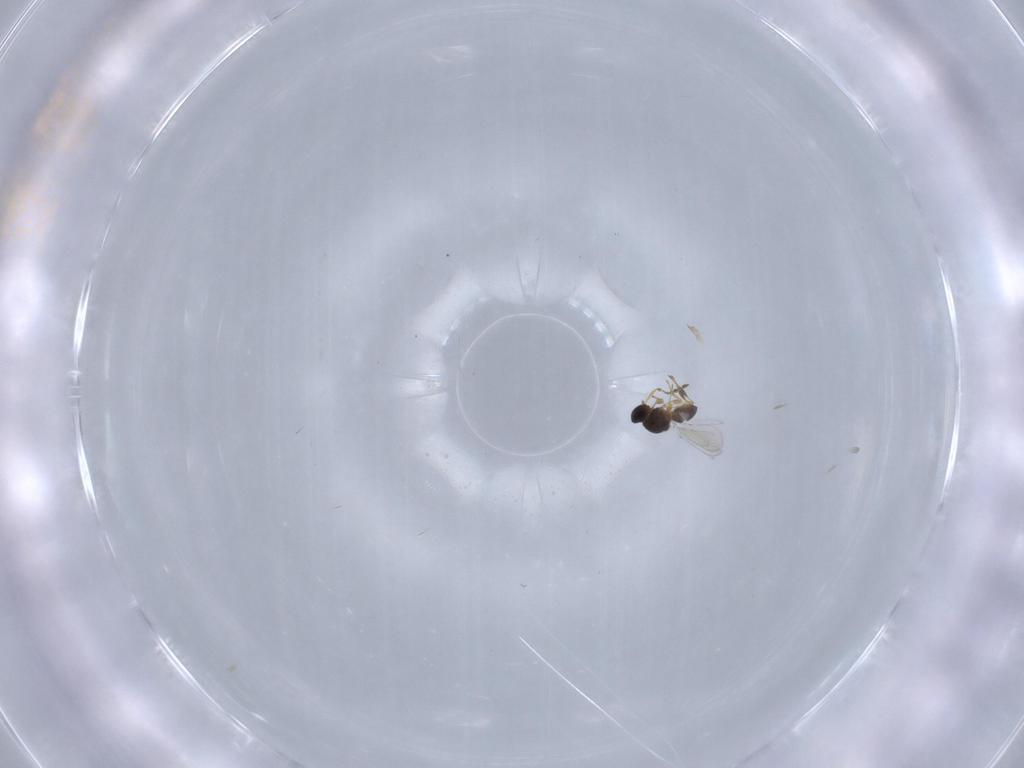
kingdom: Animalia
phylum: Arthropoda
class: Insecta
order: Hymenoptera
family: Platygastridae
